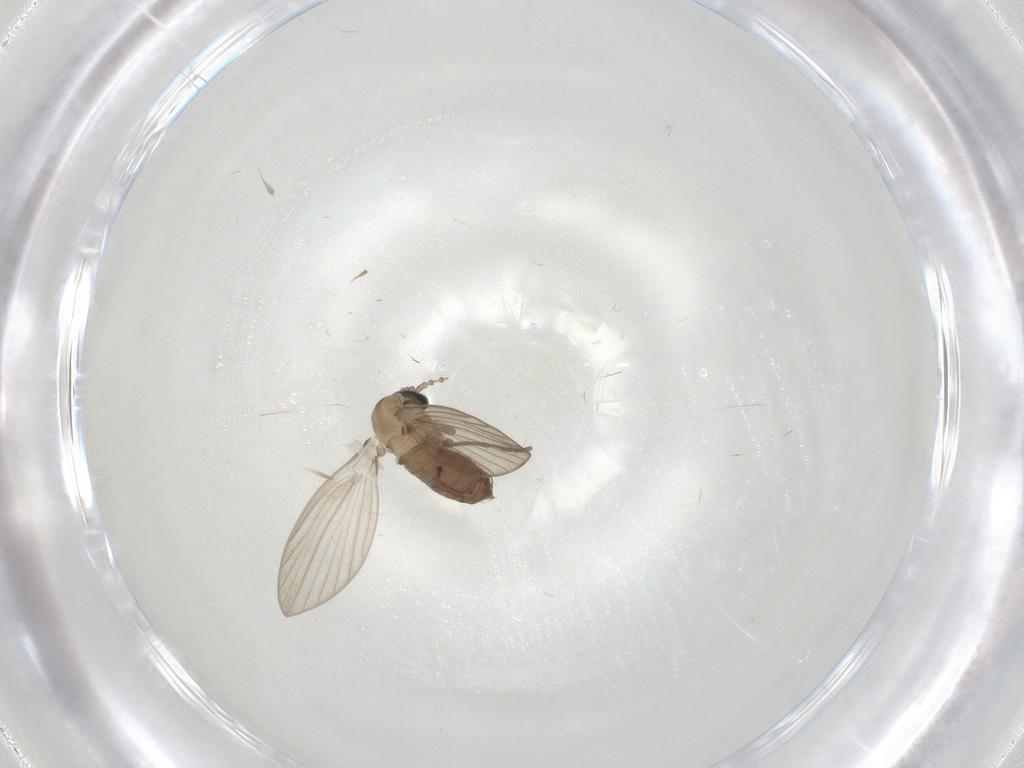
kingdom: Animalia
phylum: Arthropoda
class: Insecta
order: Diptera
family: Psychodidae
